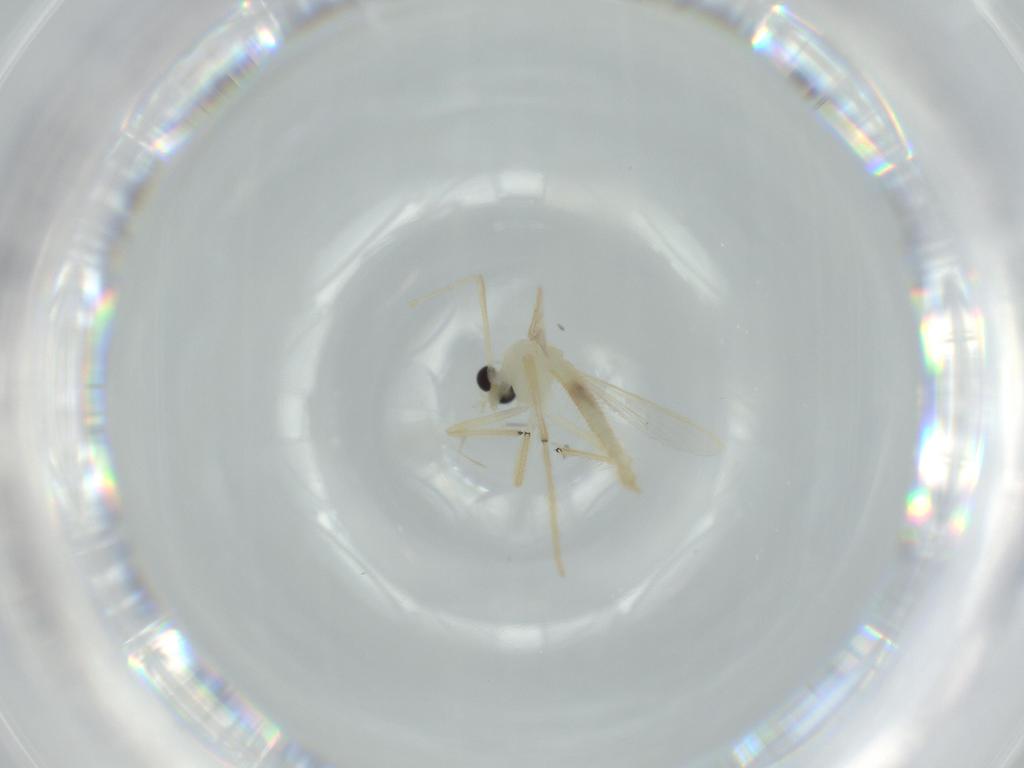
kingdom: Animalia
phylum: Arthropoda
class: Insecta
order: Diptera
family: Chironomidae
